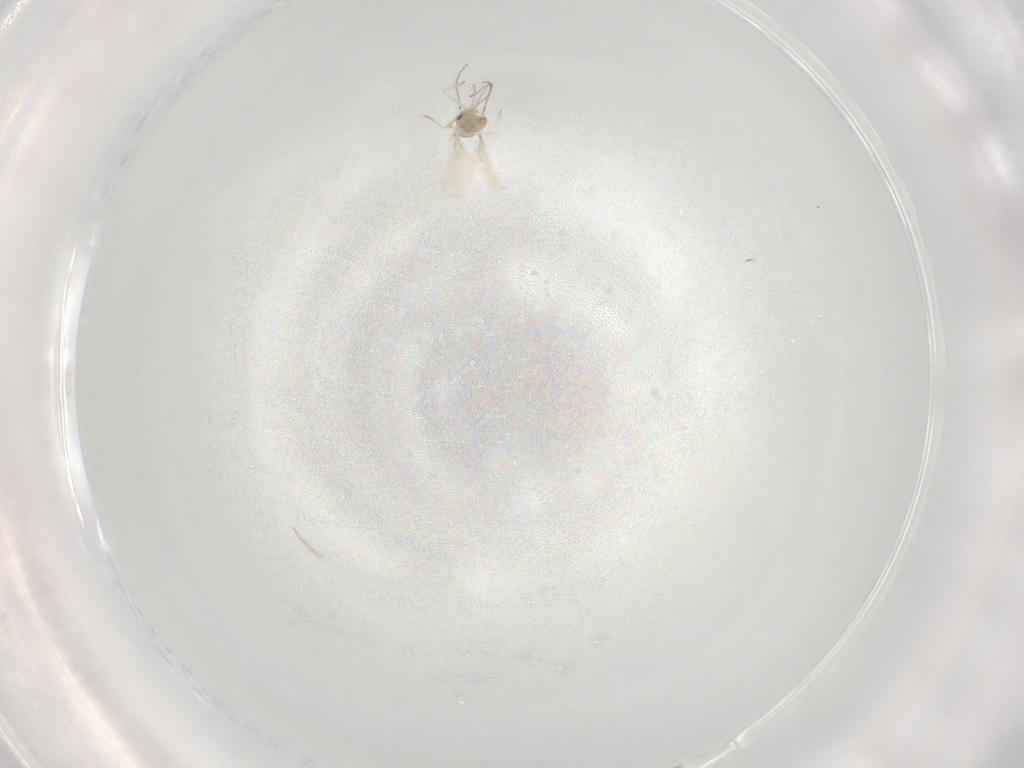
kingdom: Animalia
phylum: Arthropoda
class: Insecta
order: Diptera
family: Cecidomyiidae
